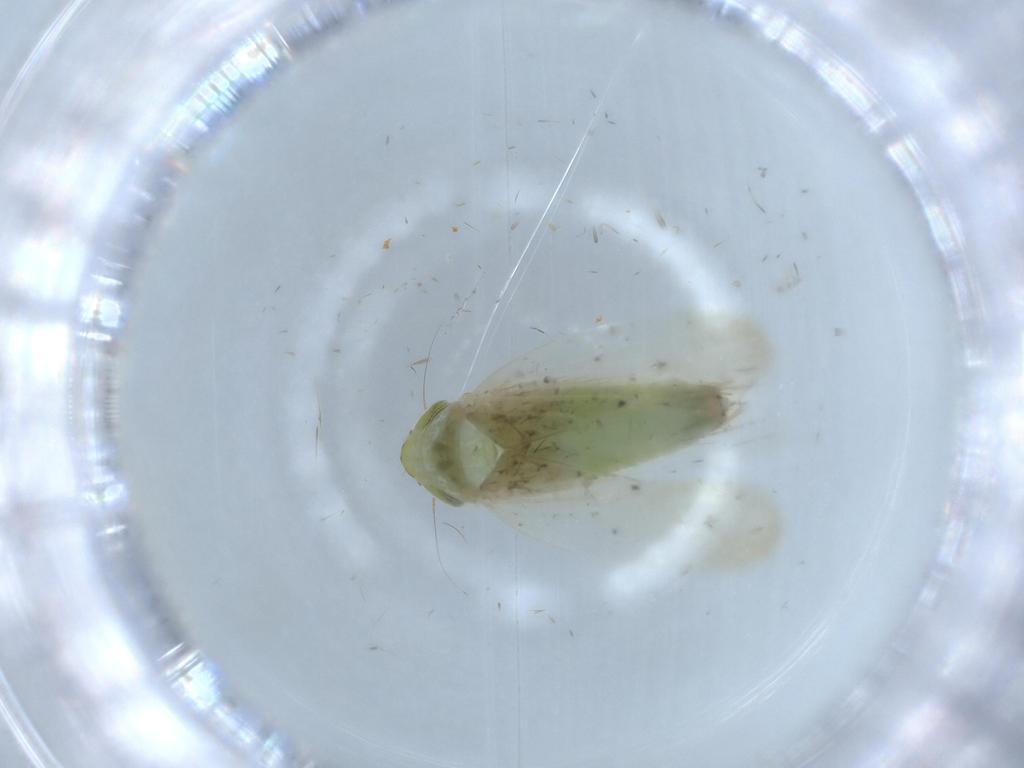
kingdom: Animalia
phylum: Arthropoda
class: Insecta
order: Hemiptera
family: Cicadellidae
